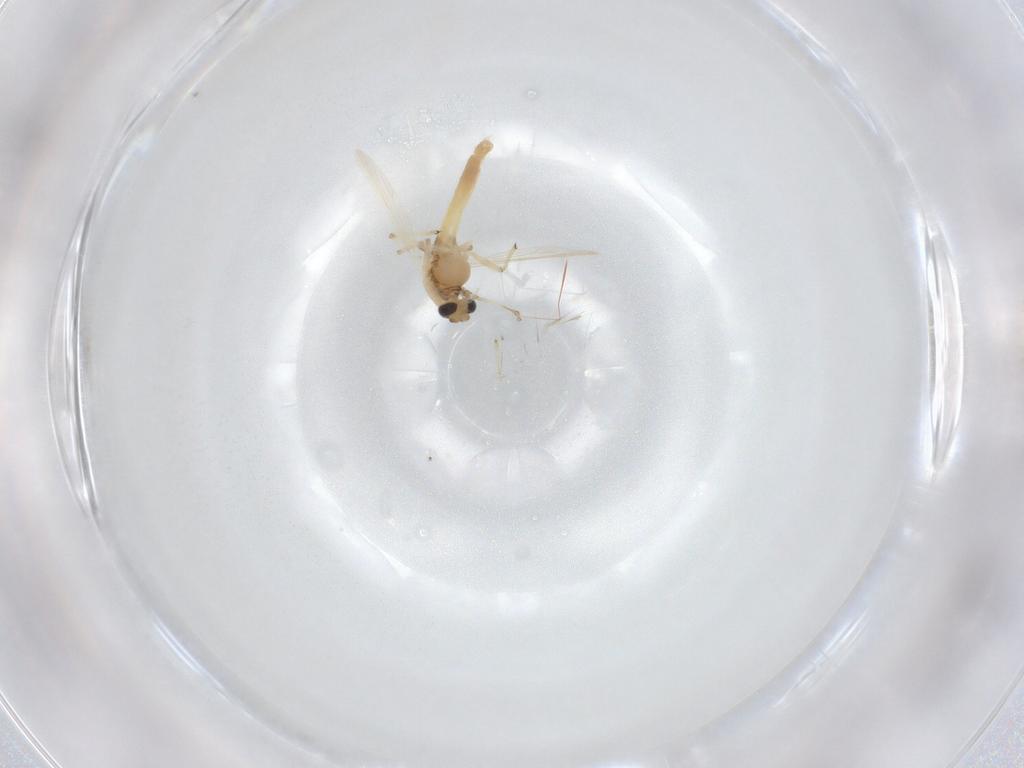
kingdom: Animalia
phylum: Arthropoda
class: Insecta
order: Diptera
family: Chironomidae
